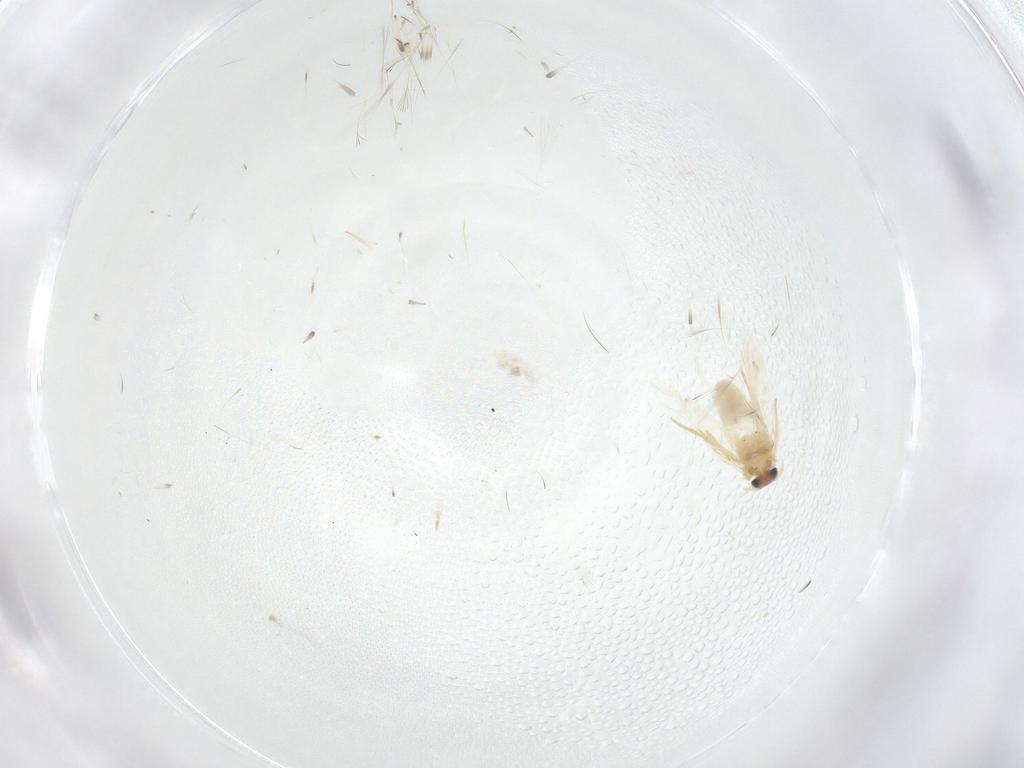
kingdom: Animalia
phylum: Arthropoda
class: Insecta
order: Lepidoptera
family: Crambidae
